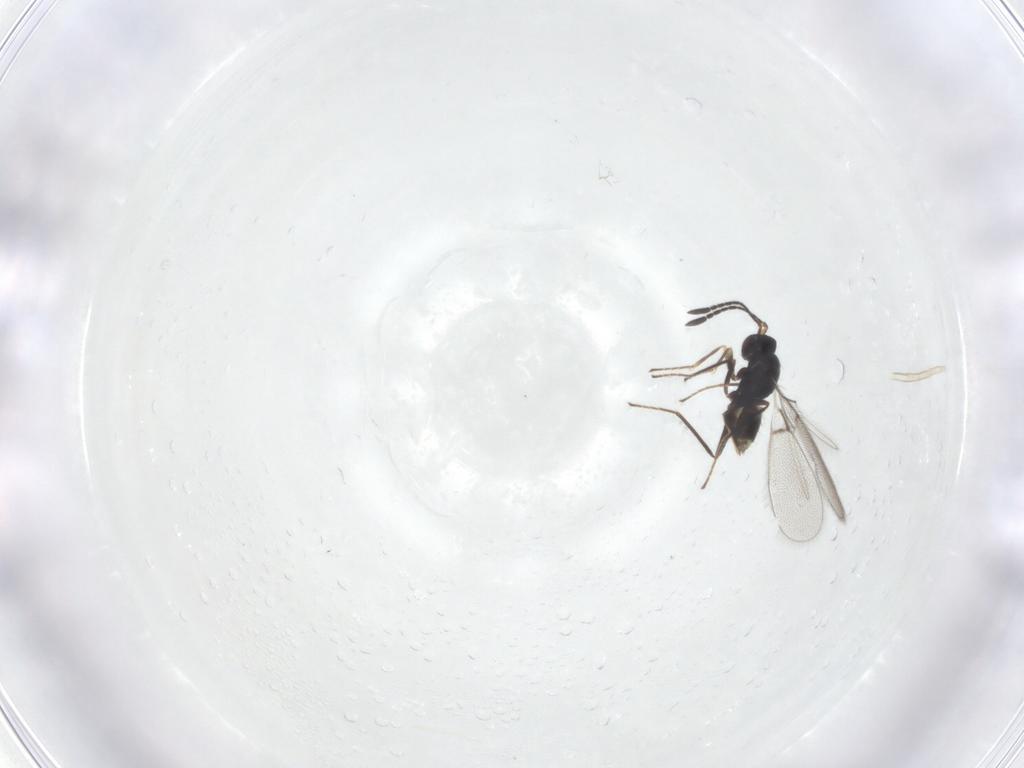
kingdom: Animalia
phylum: Arthropoda
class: Insecta
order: Hymenoptera
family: Mymaridae
